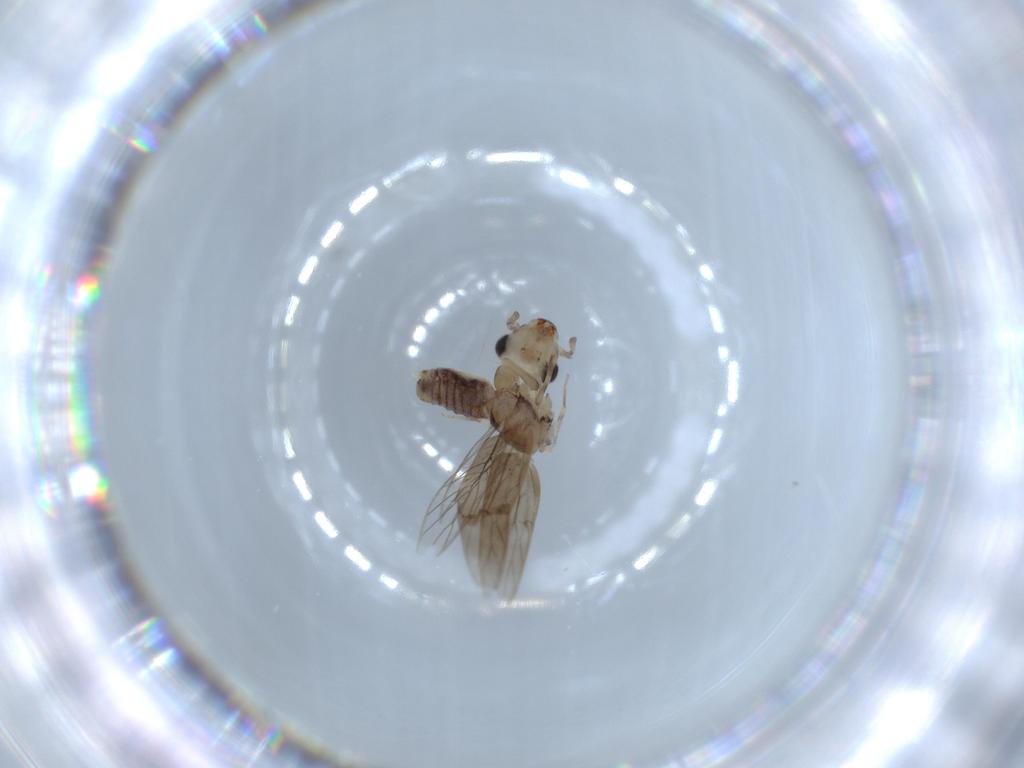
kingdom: Animalia
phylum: Arthropoda
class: Insecta
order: Psocodea
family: Lepidopsocidae
